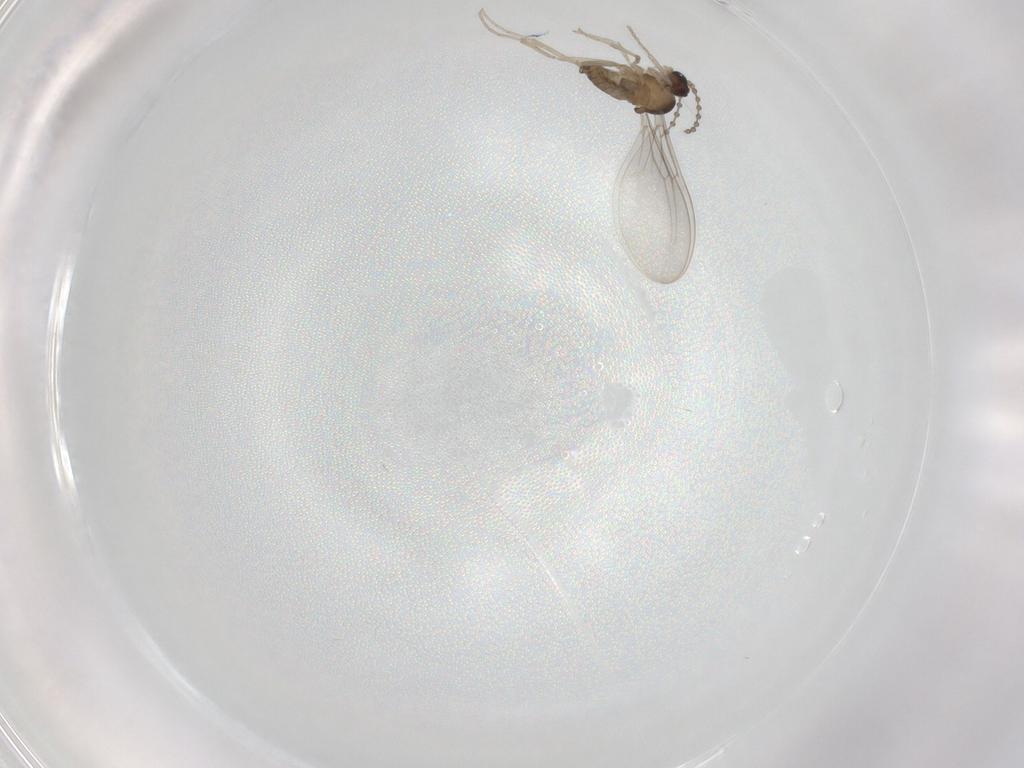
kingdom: Animalia
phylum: Arthropoda
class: Insecta
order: Diptera
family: Cecidomyiidae
